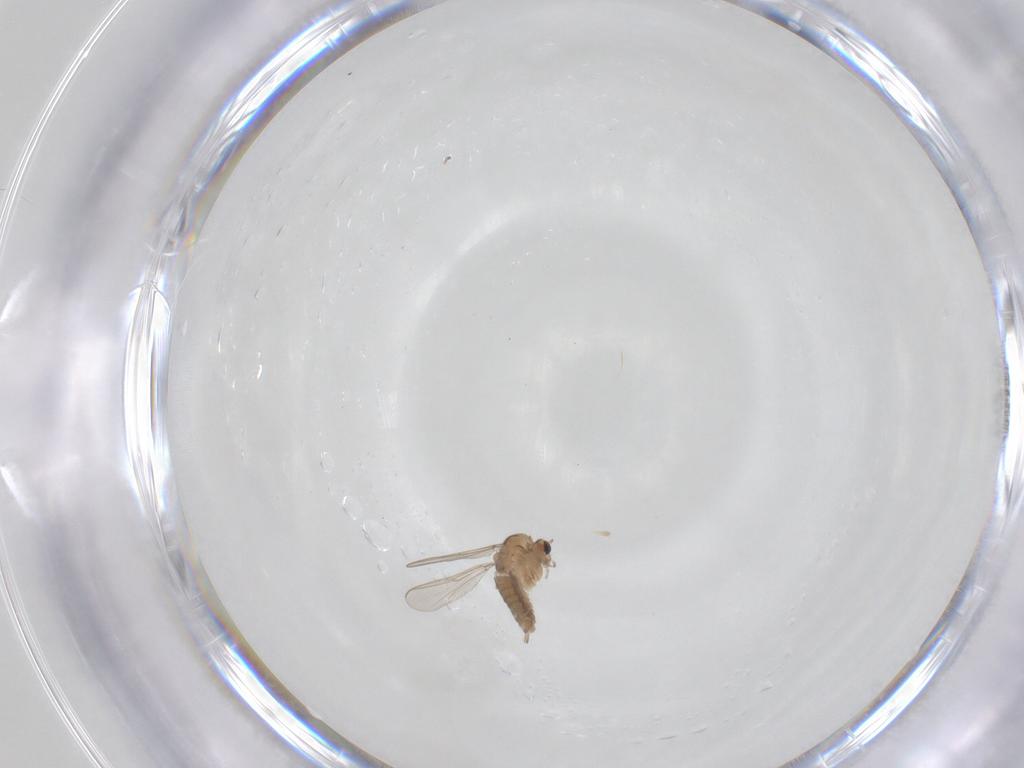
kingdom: Animalia
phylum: Arthropoda
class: Insecta
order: Diptera
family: Chironomidae
